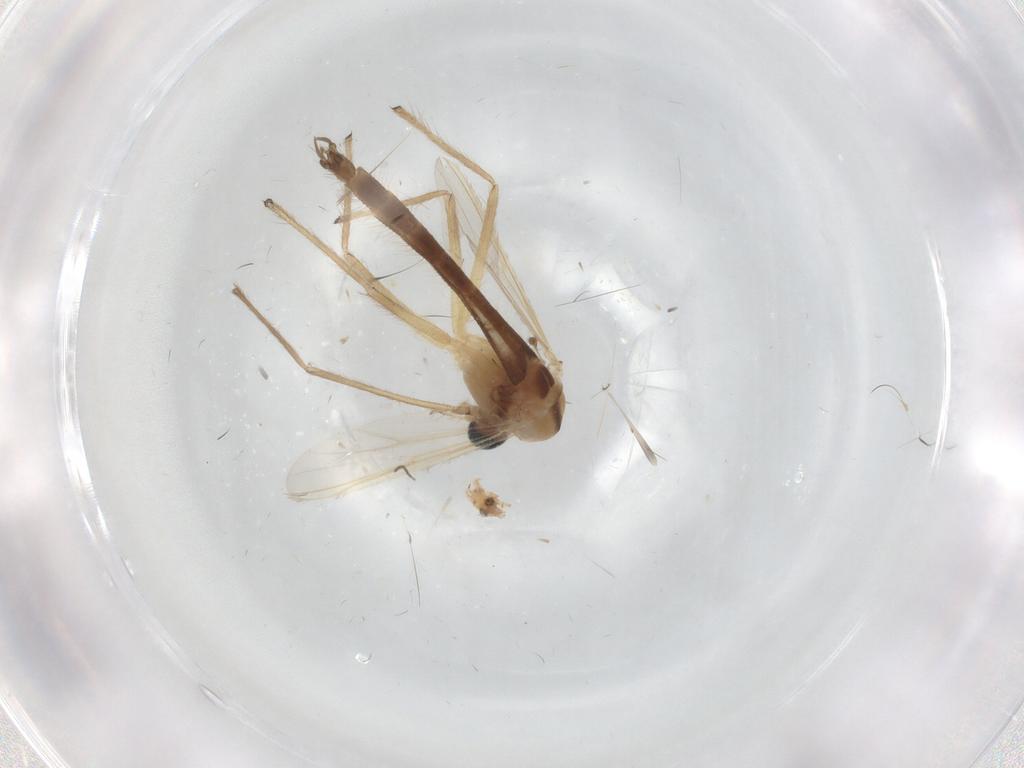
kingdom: Animalia
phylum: Arthropoda
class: Insecta
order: Diptera
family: Chironomidae
